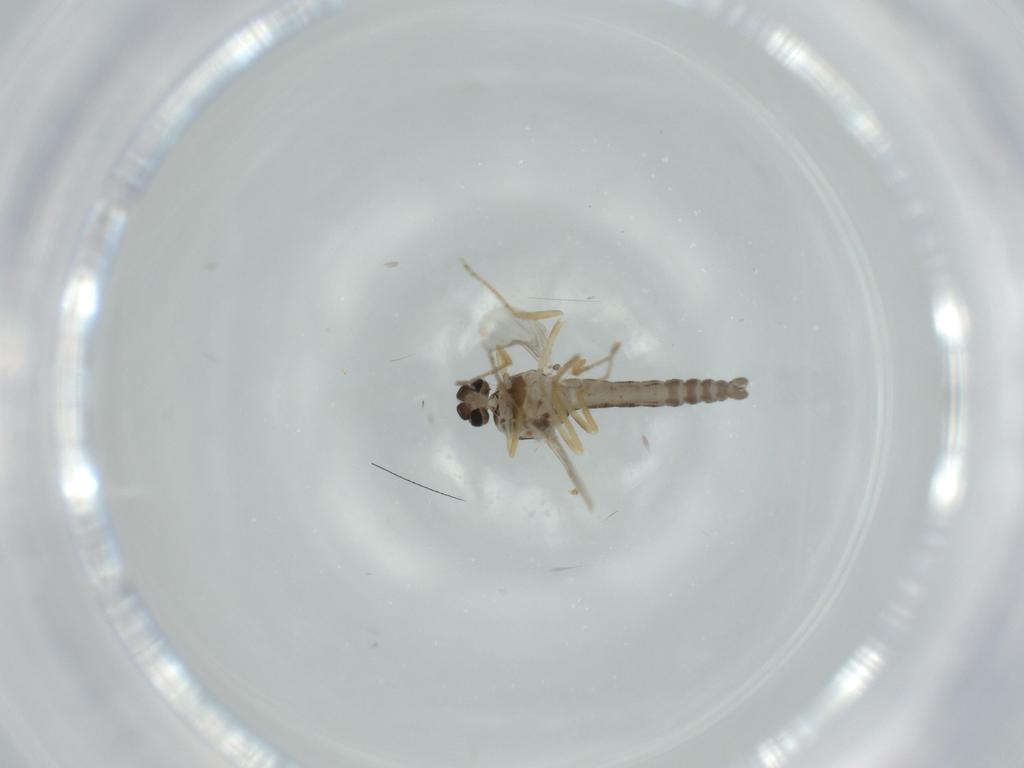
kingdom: Animalia
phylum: Arthropoda
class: Insecta
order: Diptera
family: Ceratopogonidae
